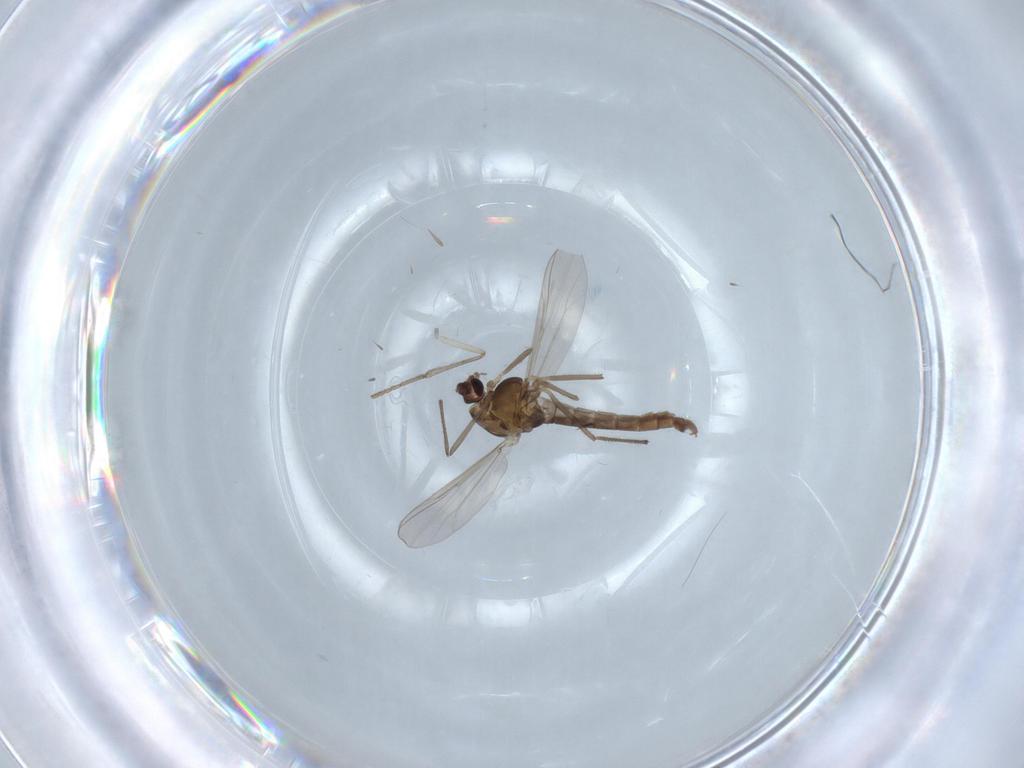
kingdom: Animalia
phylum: Arthropoda
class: Insecta
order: Diptera
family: Chironomidae
